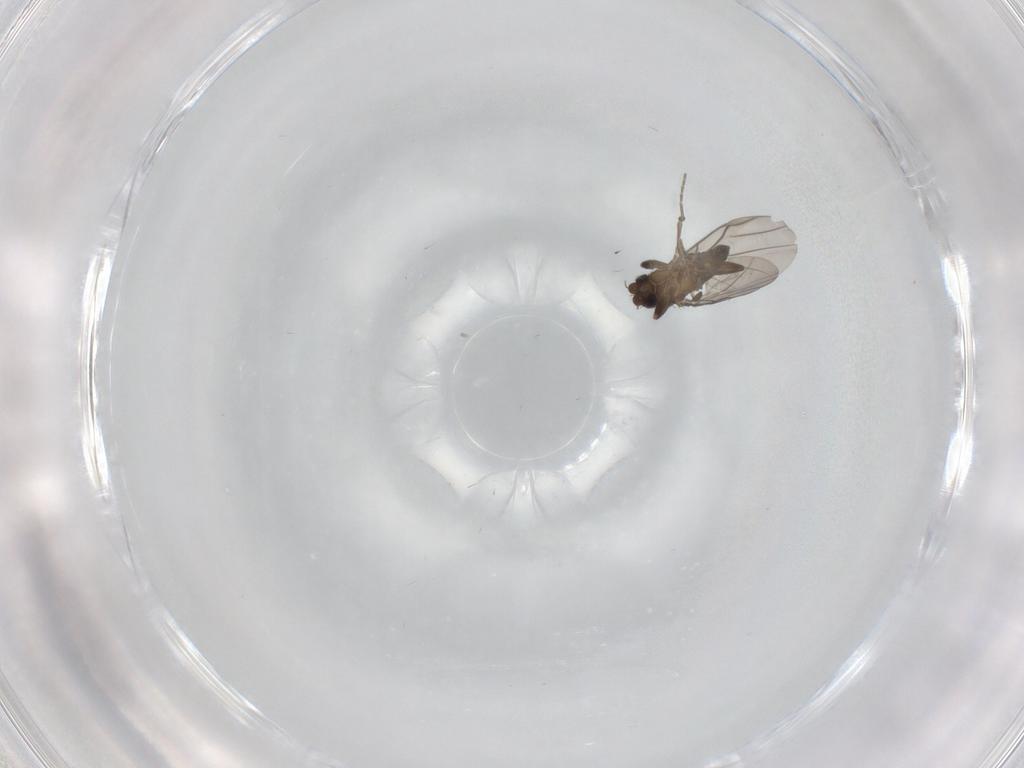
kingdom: Animalia
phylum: Arthropoda
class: Insecta
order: Diptera
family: Phoridae
